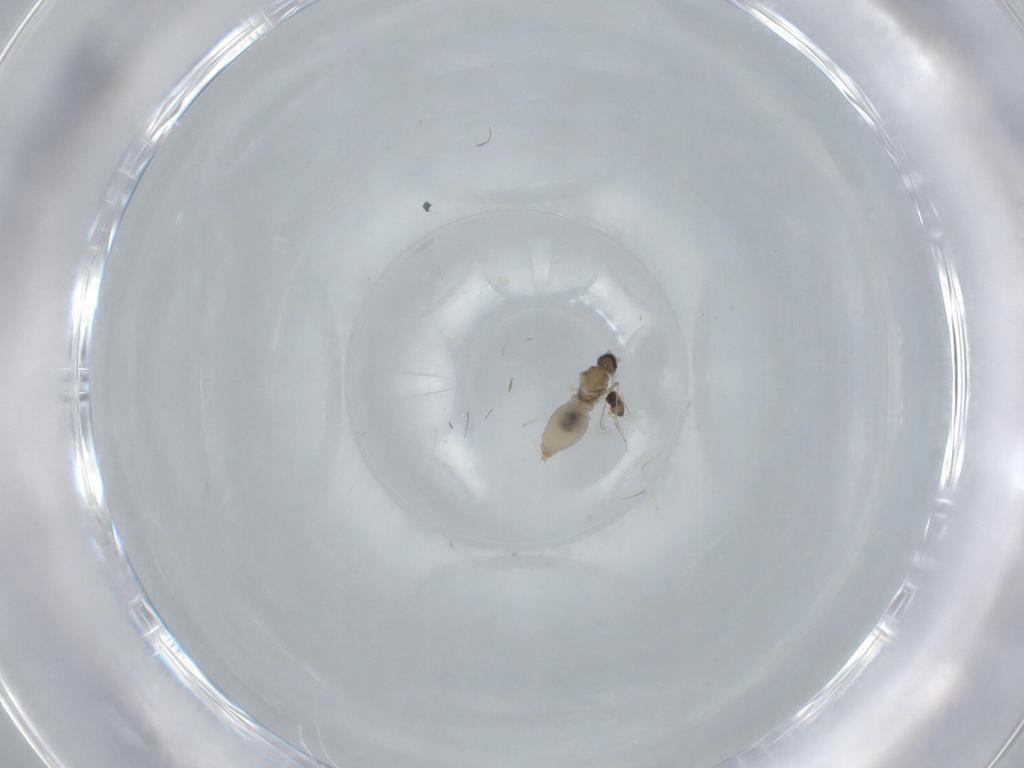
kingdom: Animalia
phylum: Arthropoda
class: Insecta
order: Diptera
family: Cecidomyiidae
